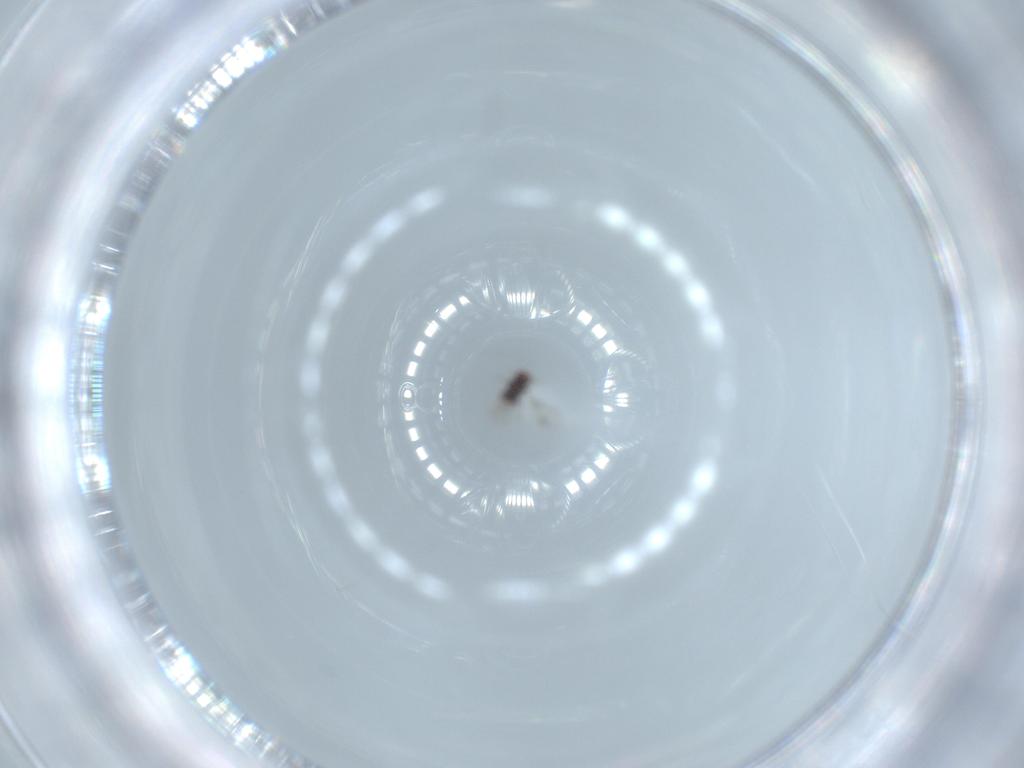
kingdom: Animalia
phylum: Arthropoda
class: Insecta
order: Hymenoptera
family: Trichogrammatidae
